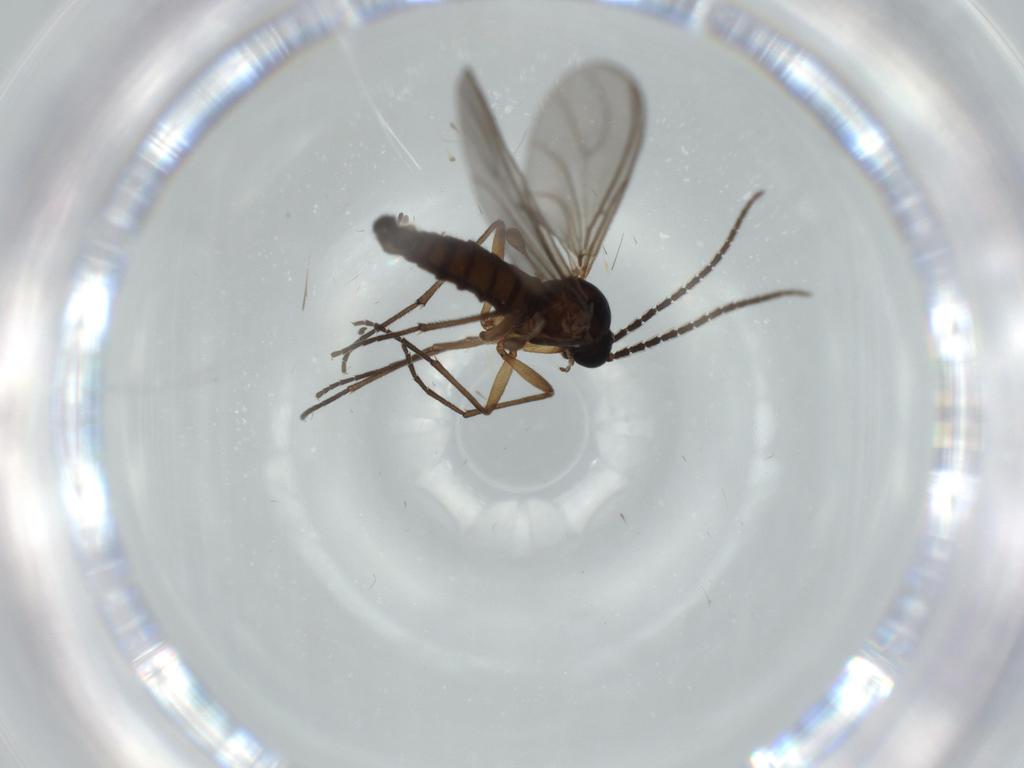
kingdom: Animalia
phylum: Arthropoda
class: Insecta
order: Diptera
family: Sciaridae
